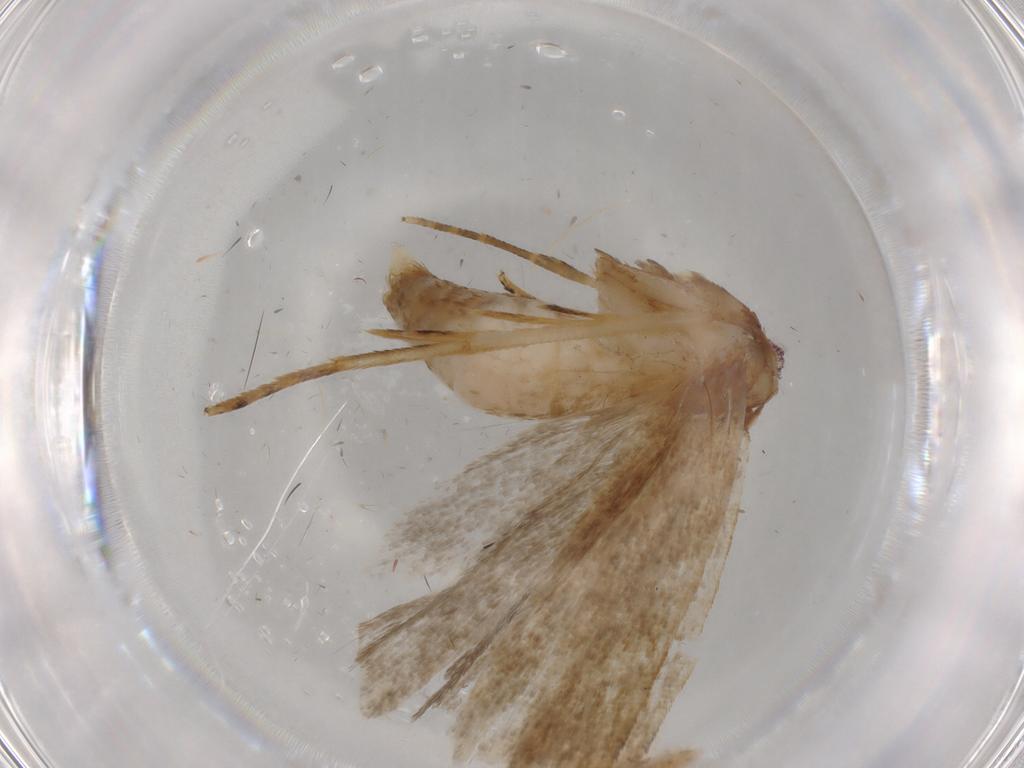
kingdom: Animalia
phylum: Arthropoda
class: Insecta
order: Lepidoptera
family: Gelechiidae
